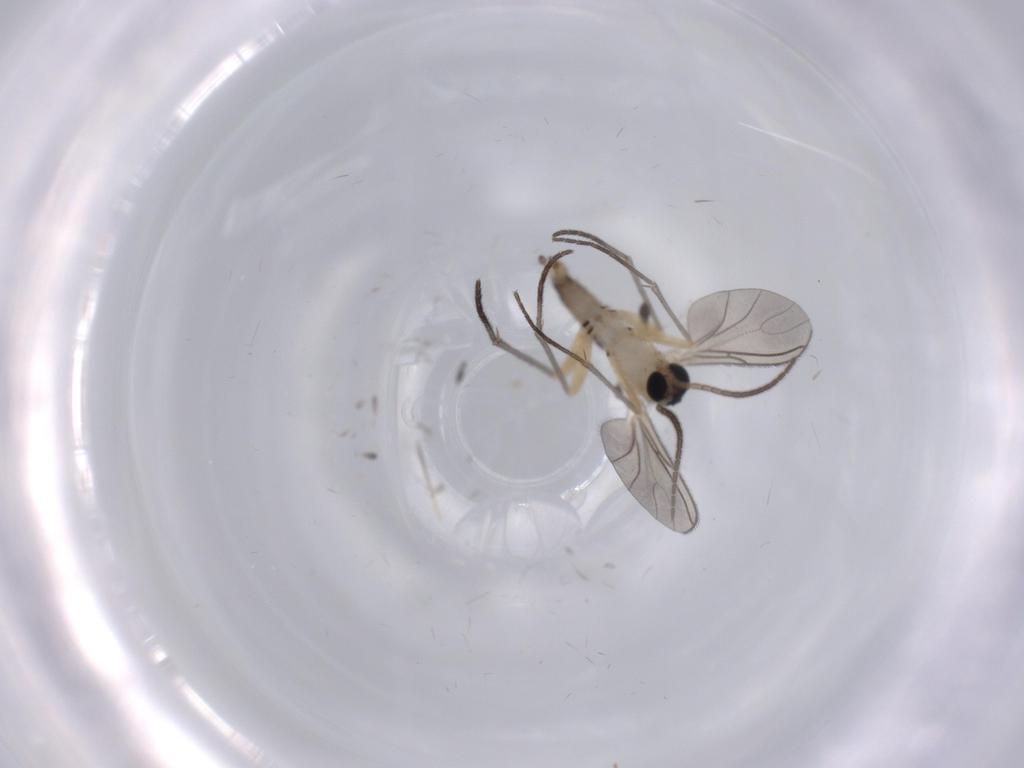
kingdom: Animalia
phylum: Arthropoda
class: Insecta
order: Diptera
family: Limoniidae
